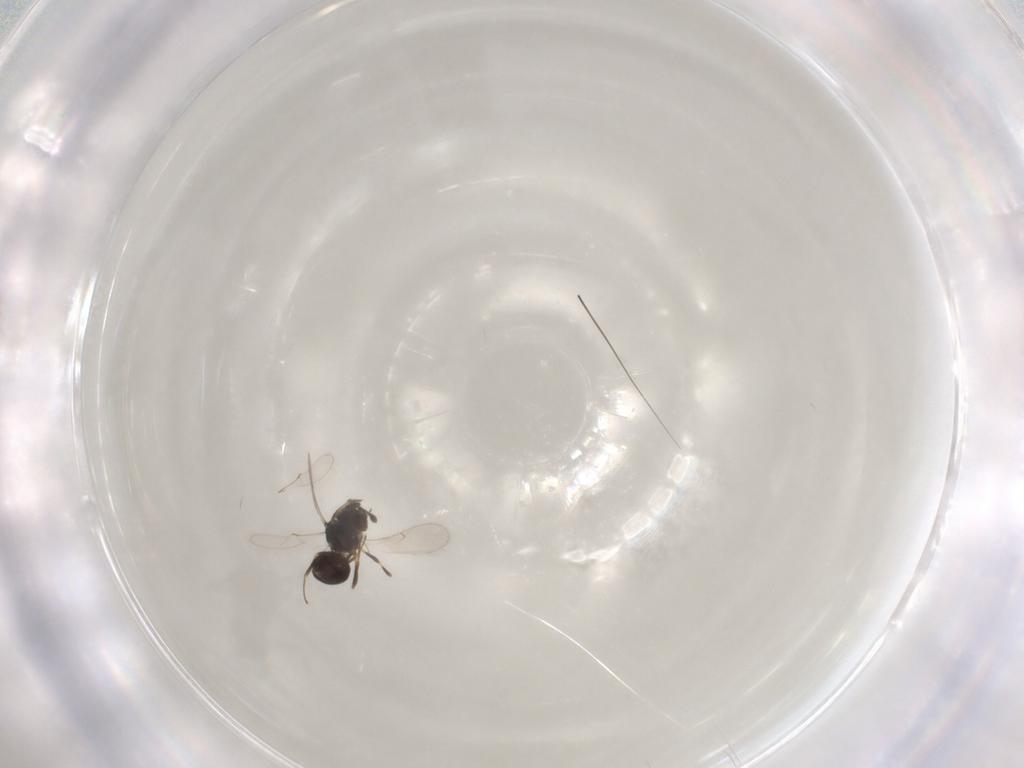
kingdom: Animalia
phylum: Arthropoda
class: Insecta
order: Hymenoptera
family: Scelionidae
